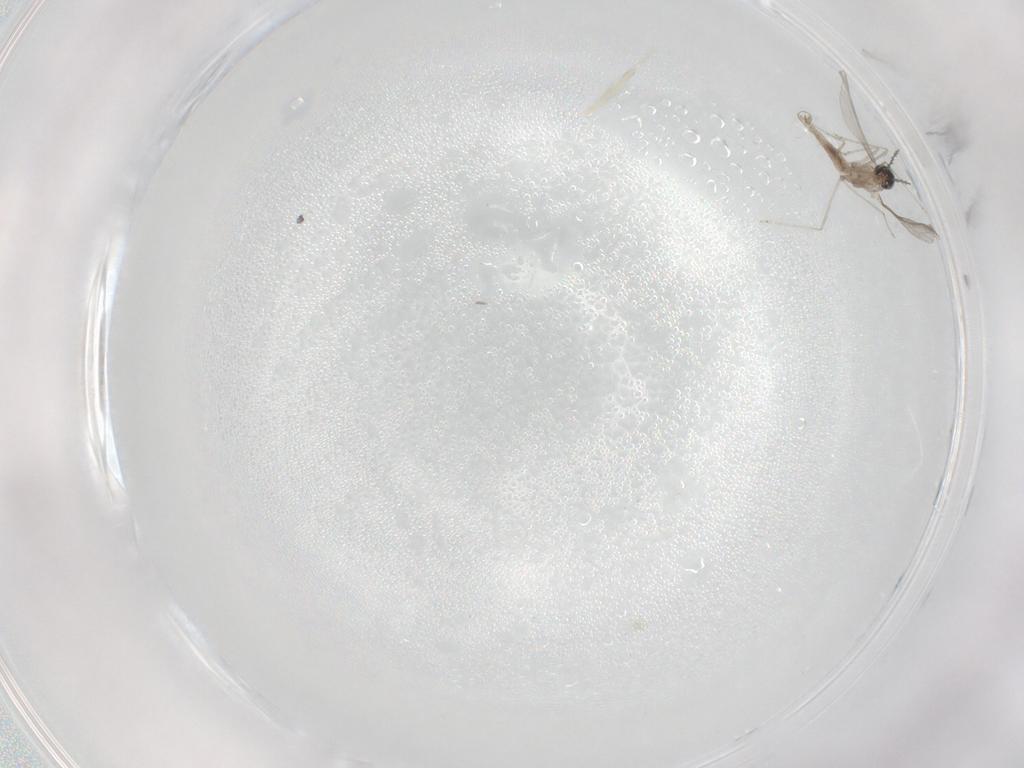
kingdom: Animalia
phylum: Arthropoda
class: Insecta
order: Diptera
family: Cecidomyiidae
